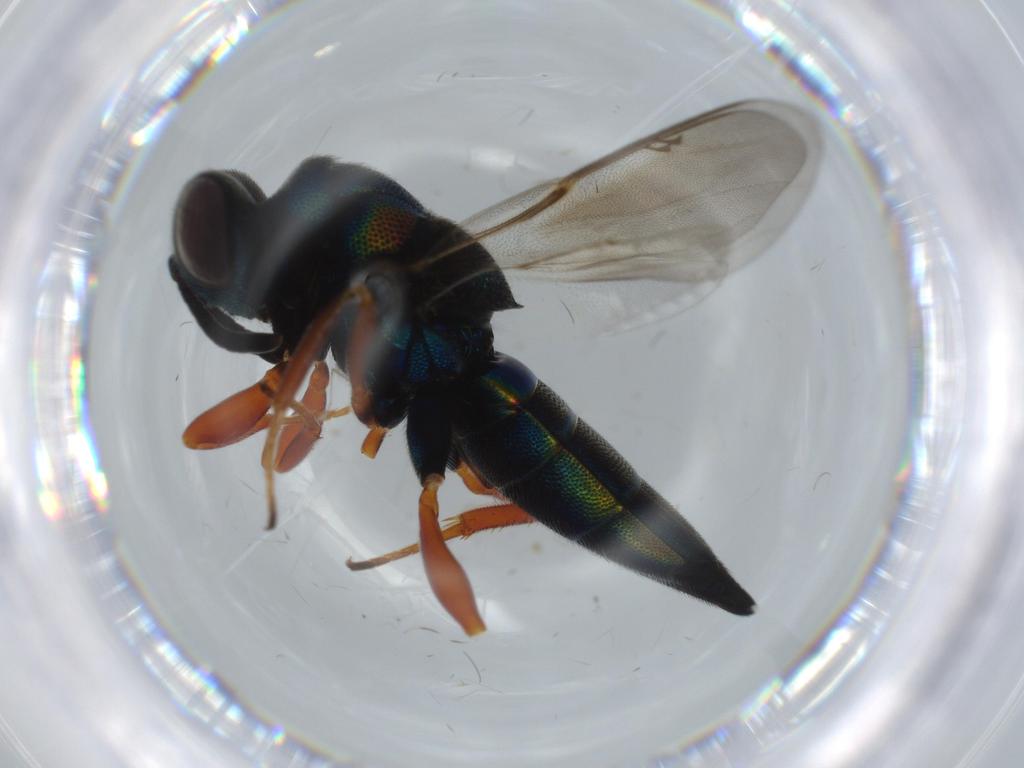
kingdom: Animalia
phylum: Arthropoda
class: Insecta
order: Hymenoptera
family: Lyciscidae
